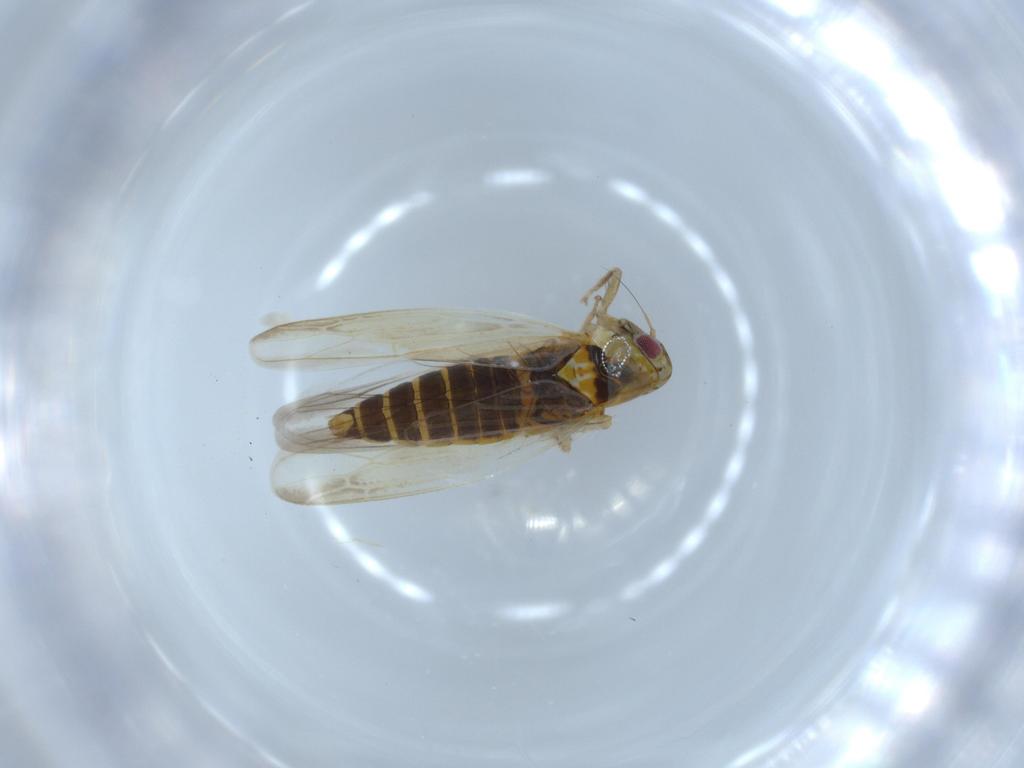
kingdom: Animalia
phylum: Arthropoda
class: Insecta
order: Hemiptera
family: Cicadellidae
